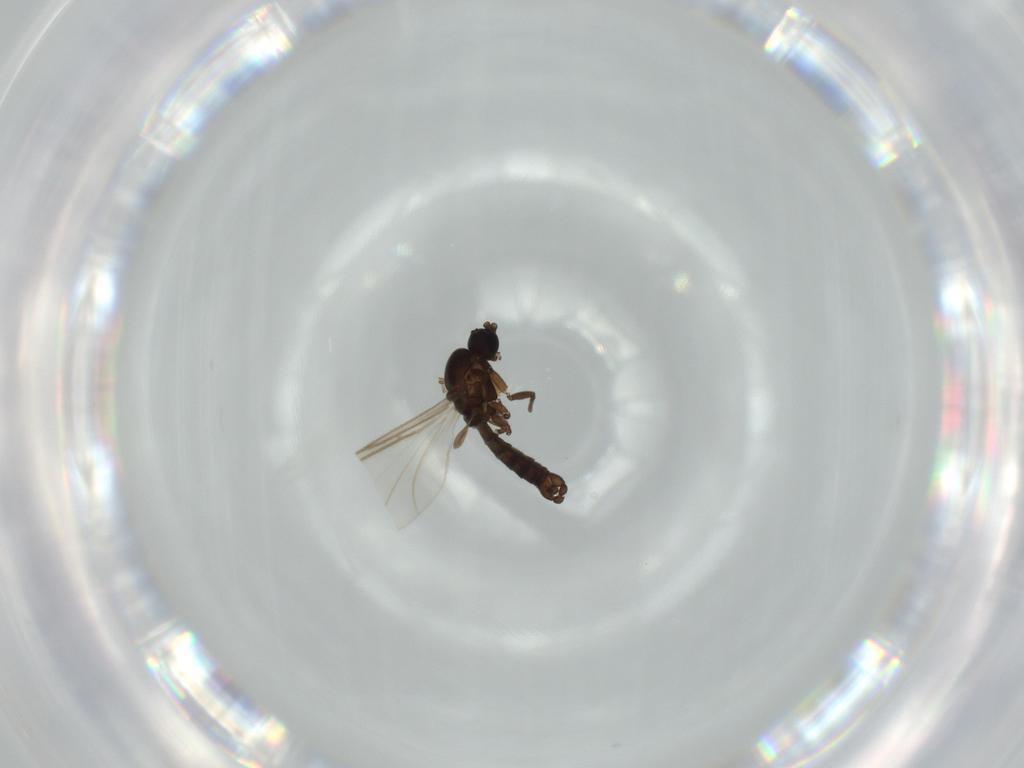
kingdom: Animalia
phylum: Arthropoda
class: Insecta
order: Diptera
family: Sciaridae
